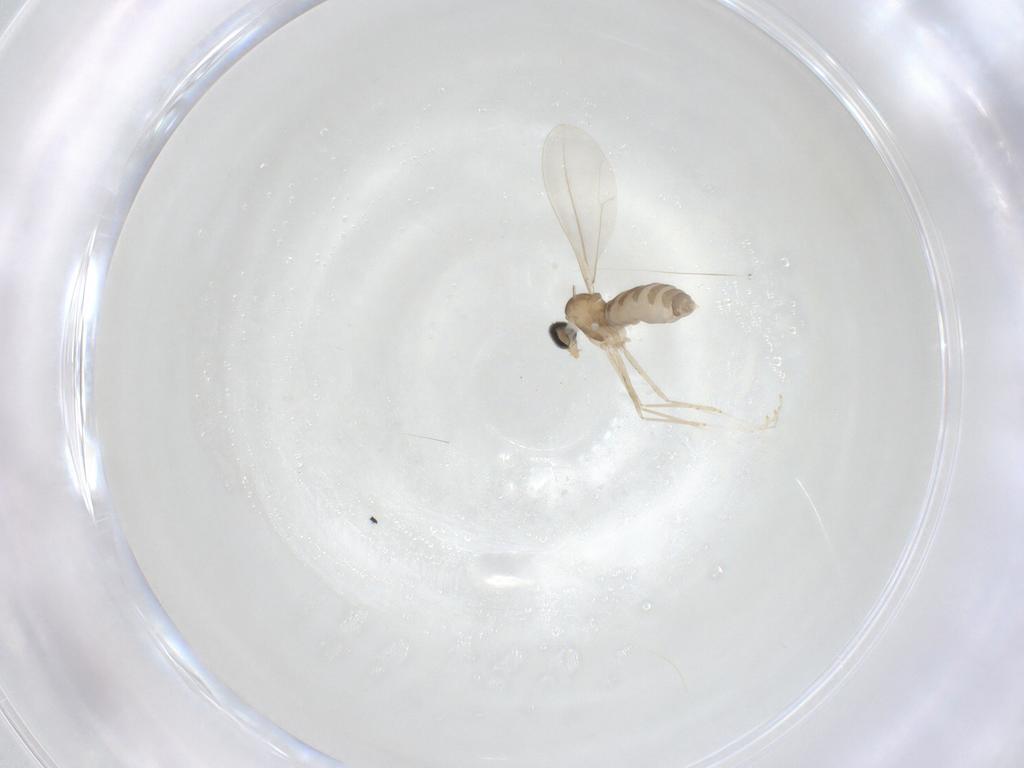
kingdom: Animalia
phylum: Arthropoda
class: Insecta
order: Diptera
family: Cecidomyiidae
